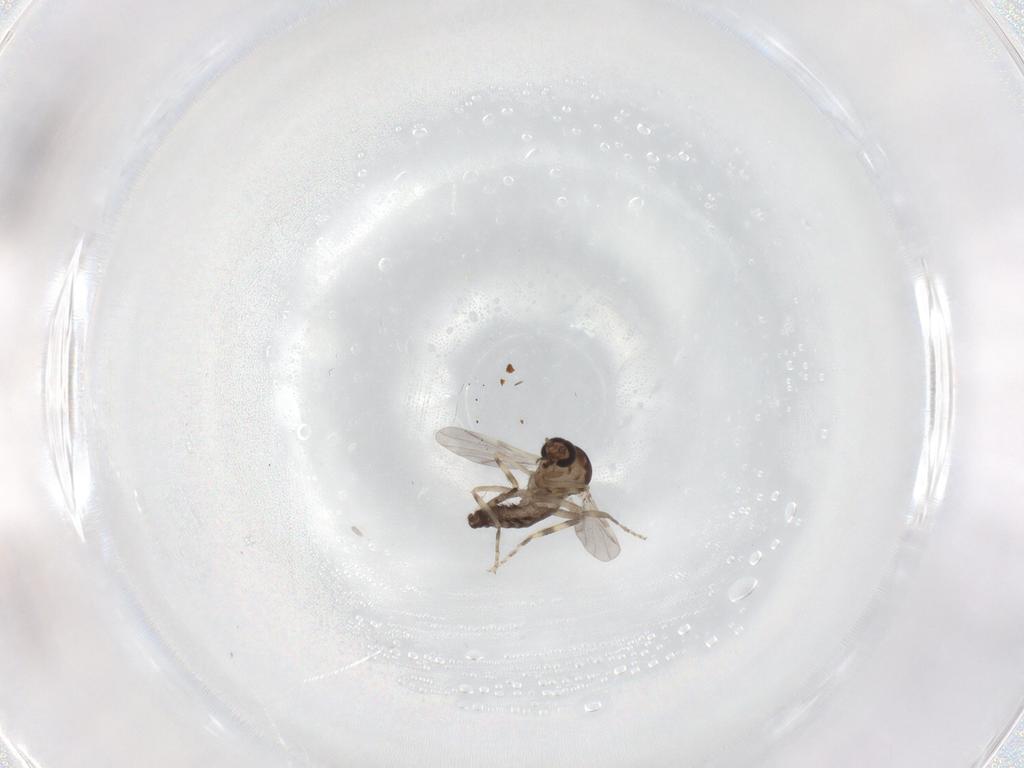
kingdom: Animalia
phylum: Arthropoda
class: Insecta
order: Diptera
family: Ceratopogonidae
